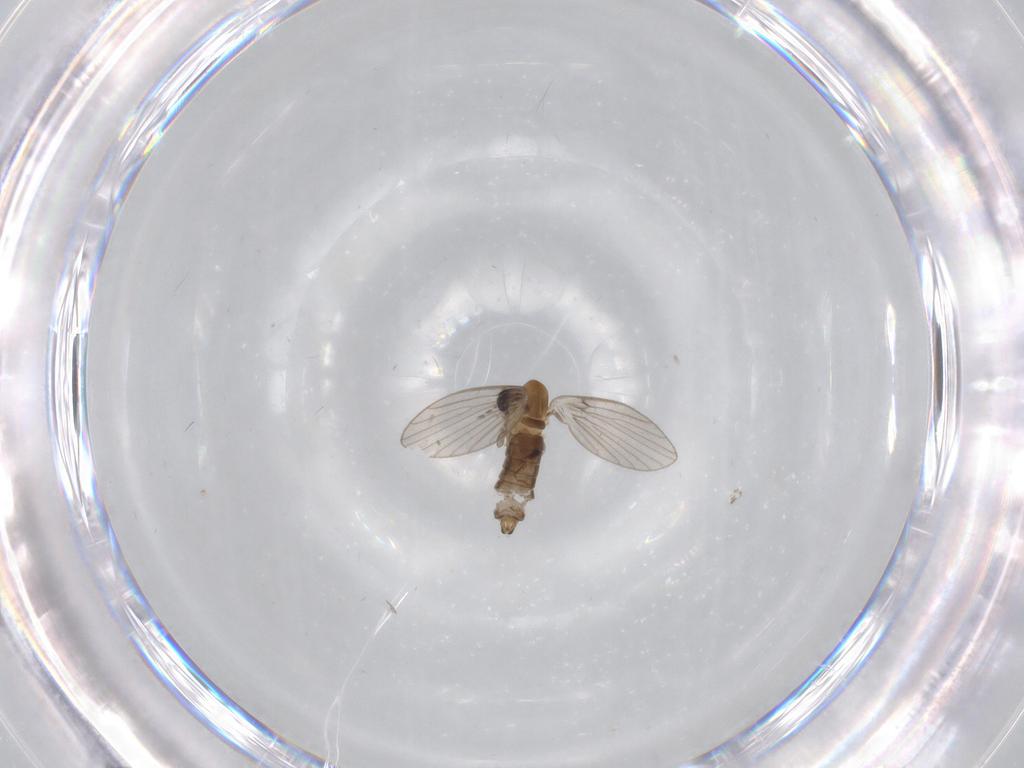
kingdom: Animalia
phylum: Arthropoda
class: Insecta
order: Diptera
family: Psychodidae
